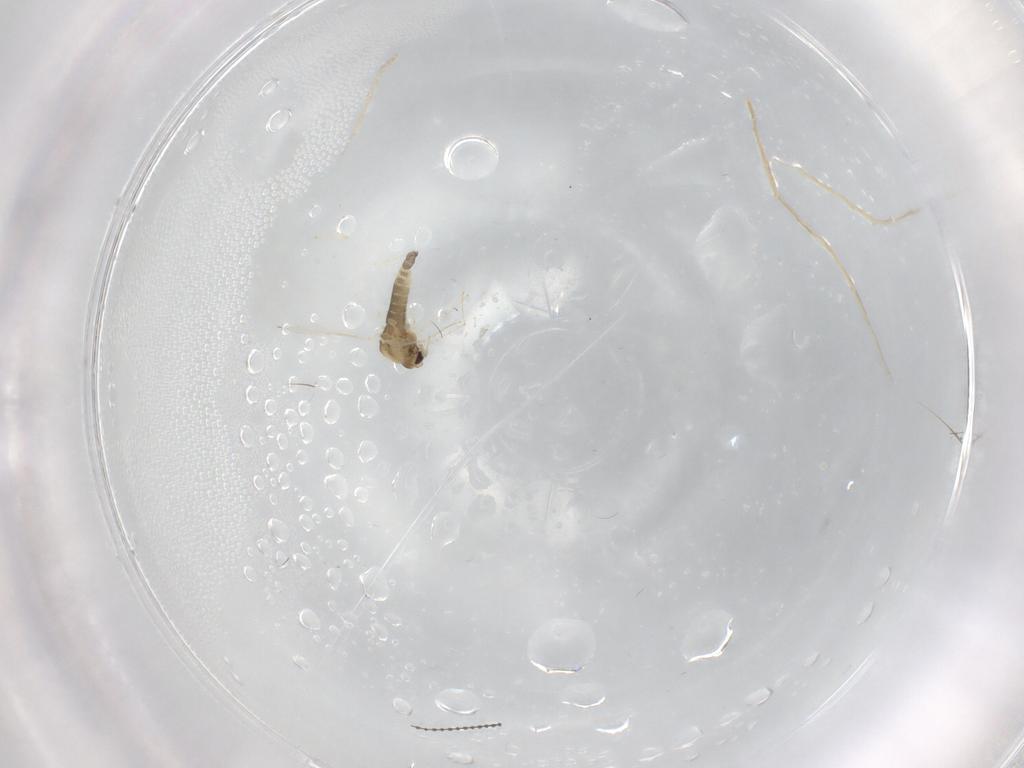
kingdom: Animalia
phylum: Arthropoda
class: Insecta
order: Diptera
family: Chironomidae
